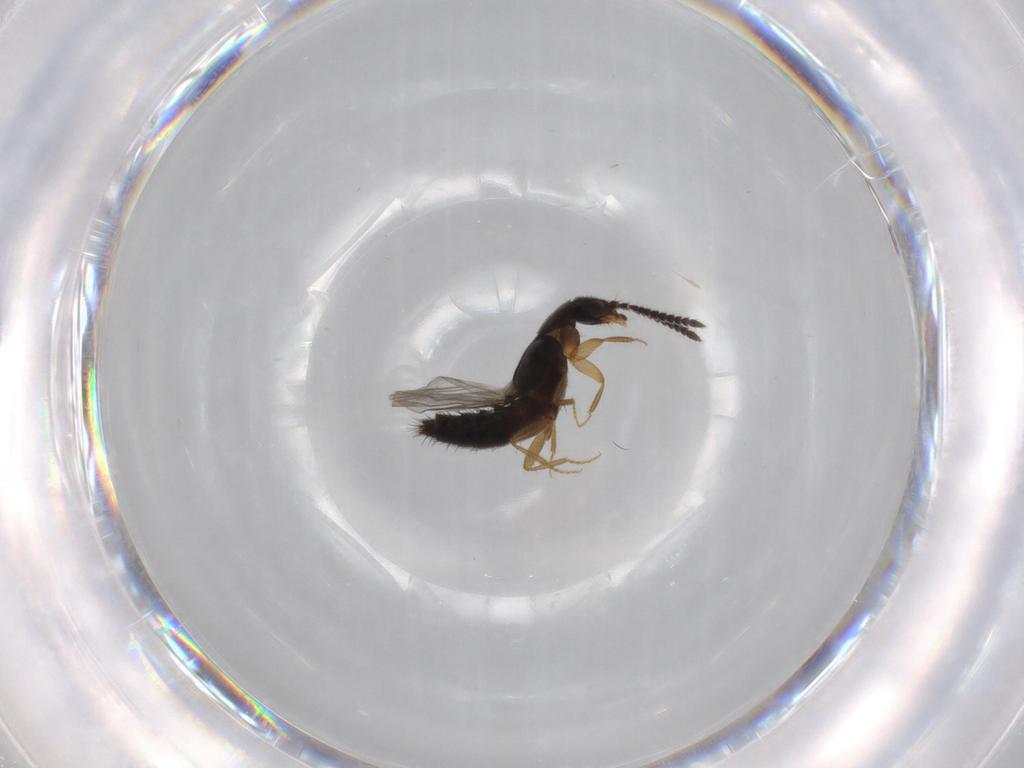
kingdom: Animalia
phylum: Arthropoda
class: Insecta
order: Coleoptera
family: Staphylinidae
